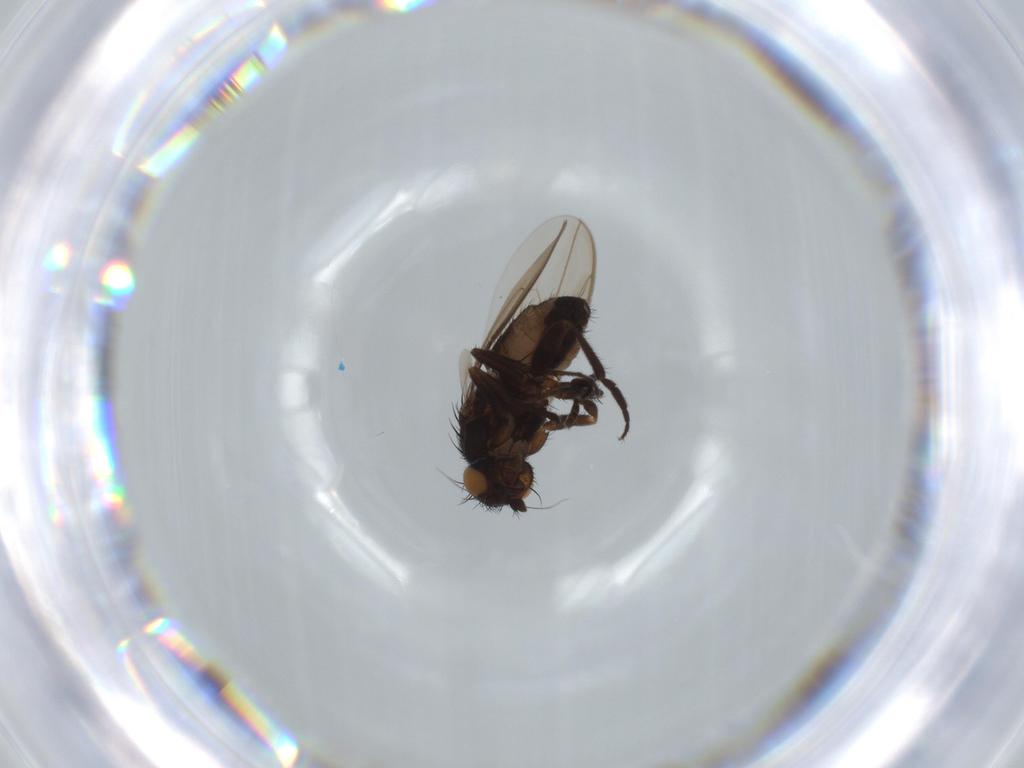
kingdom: Animalia
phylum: Arthropoda
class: Insecta
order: Diptera
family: Sphaeroceridae
